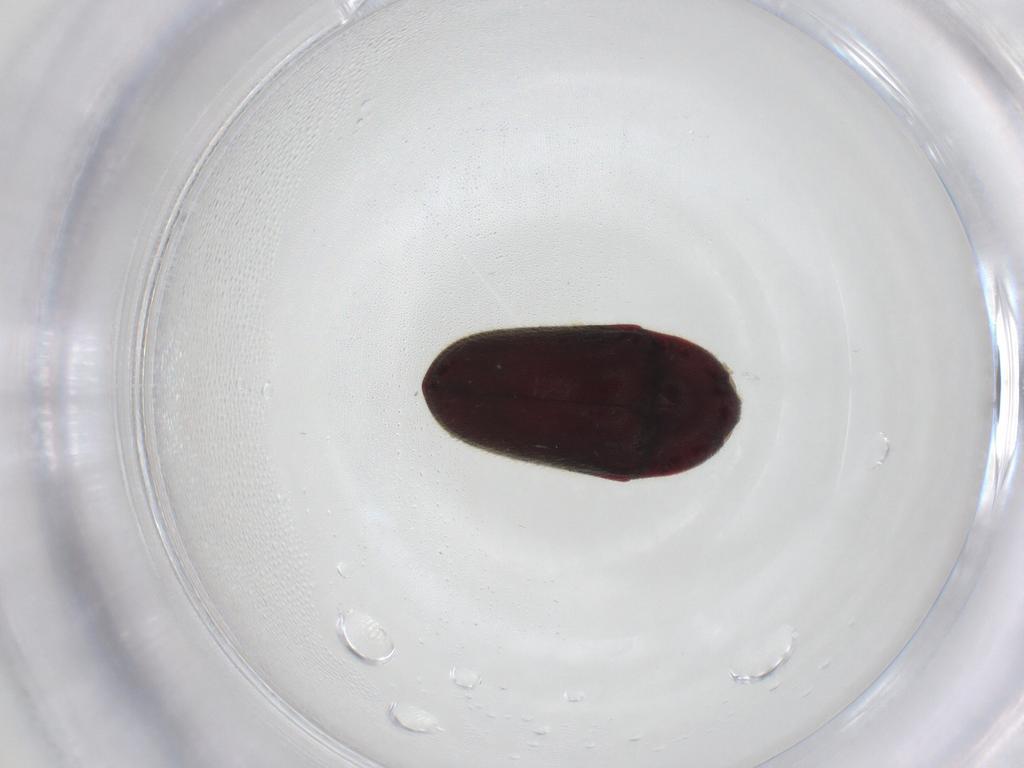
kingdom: Animalia
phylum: Arthropoda
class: Insecta
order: Coleoptera
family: Throscidae
